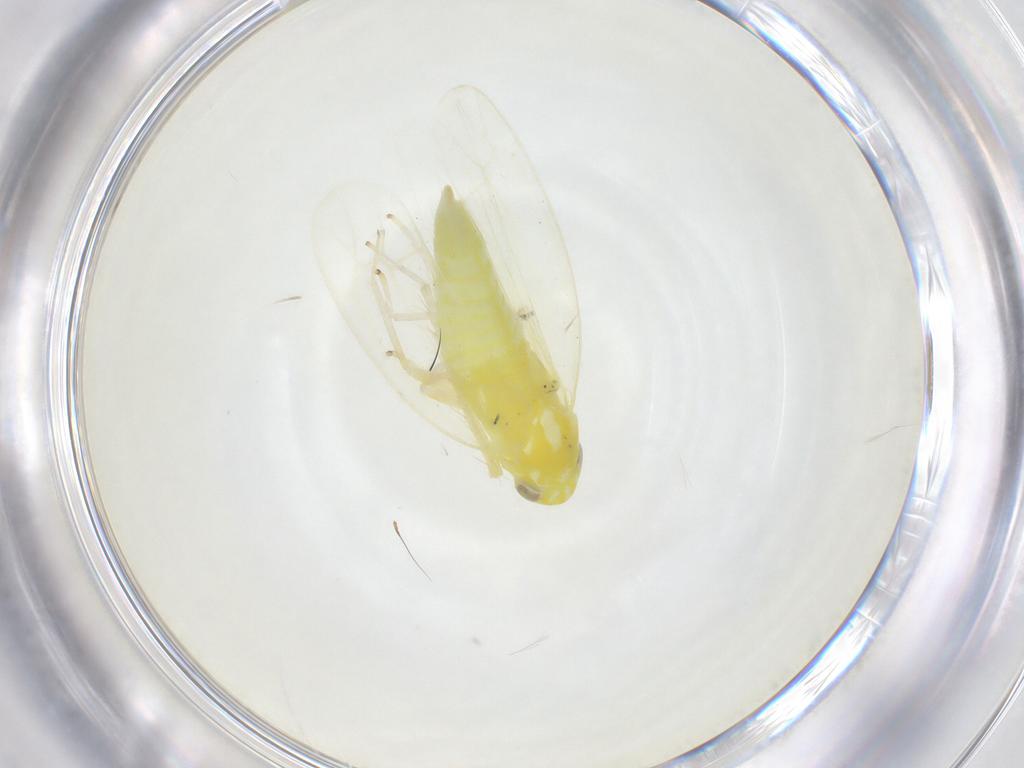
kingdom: Animalia
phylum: Arthropoda
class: Insecta
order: Hemiptera
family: Cicadellidae
